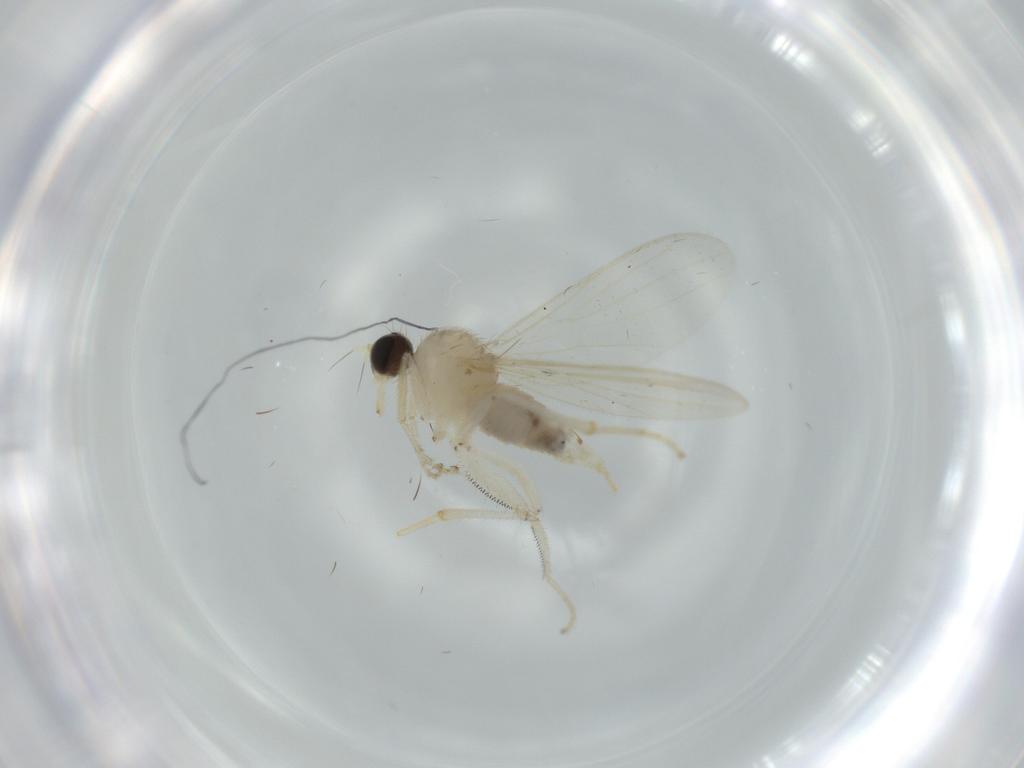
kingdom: Animalia
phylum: Arthropoda
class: Insecta
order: Diptera
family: Hybotidae
